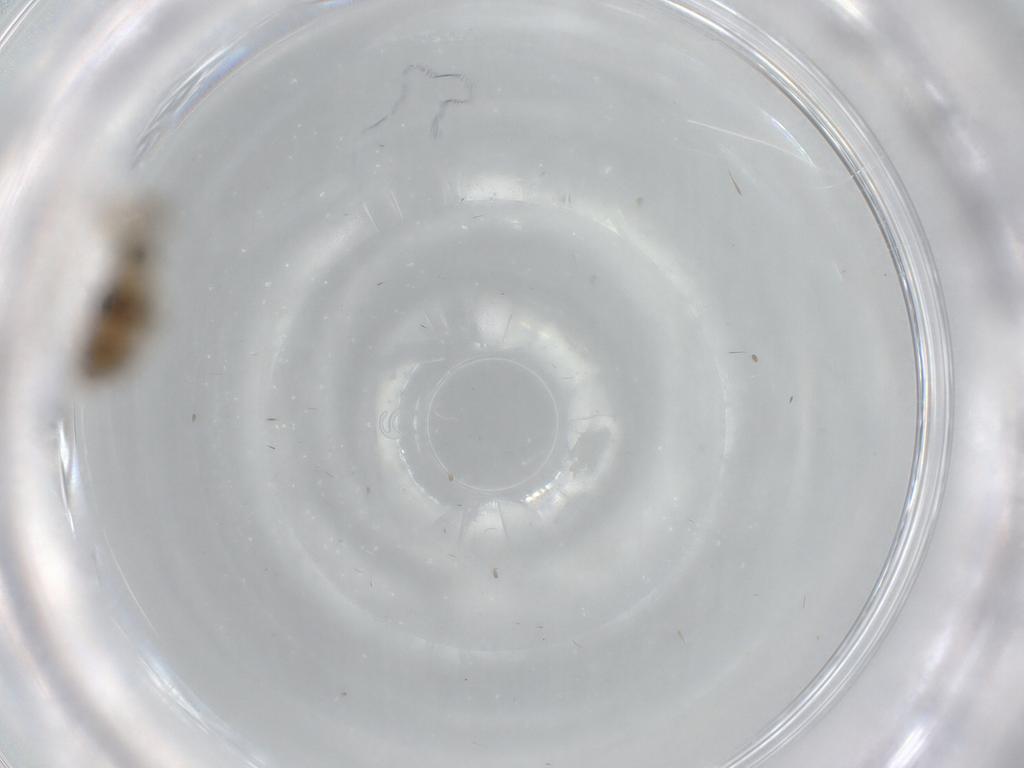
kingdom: Animalia
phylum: Arthropoda
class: Insecta
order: Diptera
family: Phoridae
